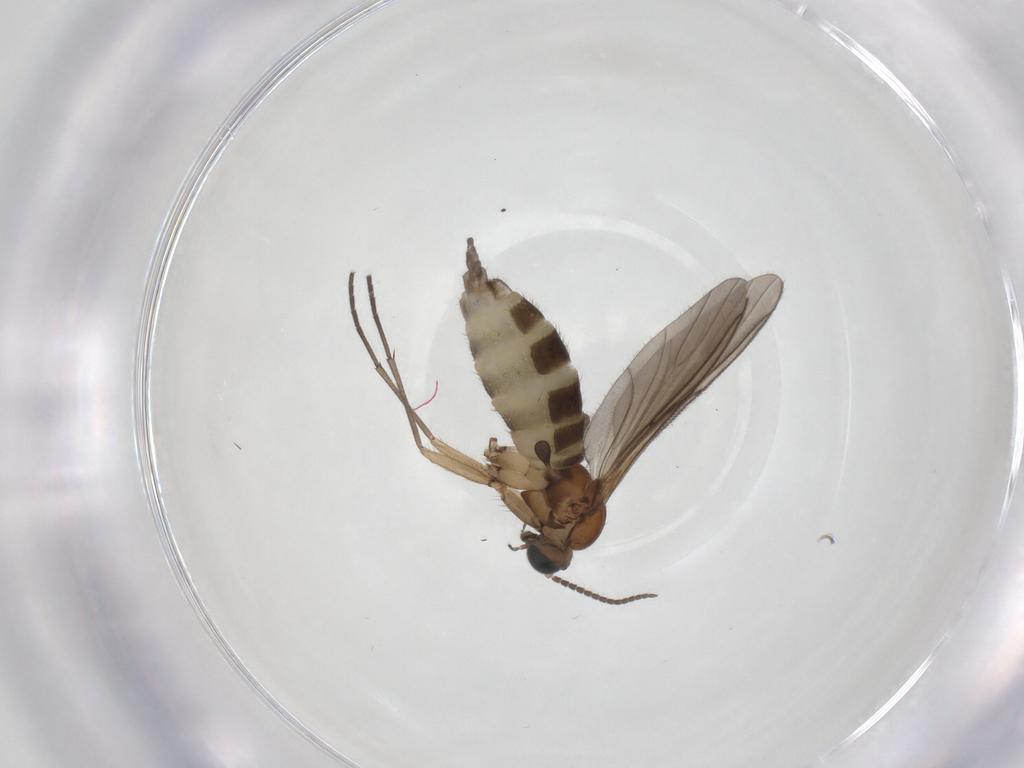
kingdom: Animalia
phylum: Arthropoda
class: Insecta
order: Diptera
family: Sciaridae
